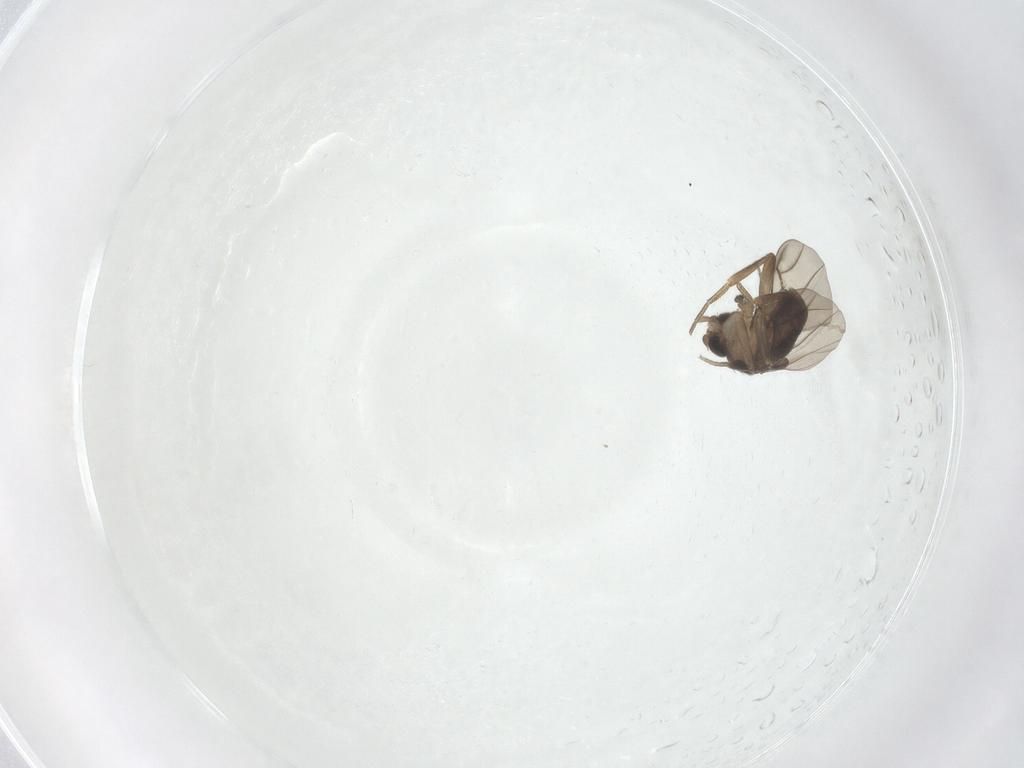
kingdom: Animalia
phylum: Arthropoda
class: Insecta
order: Diptera
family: Phoridae
